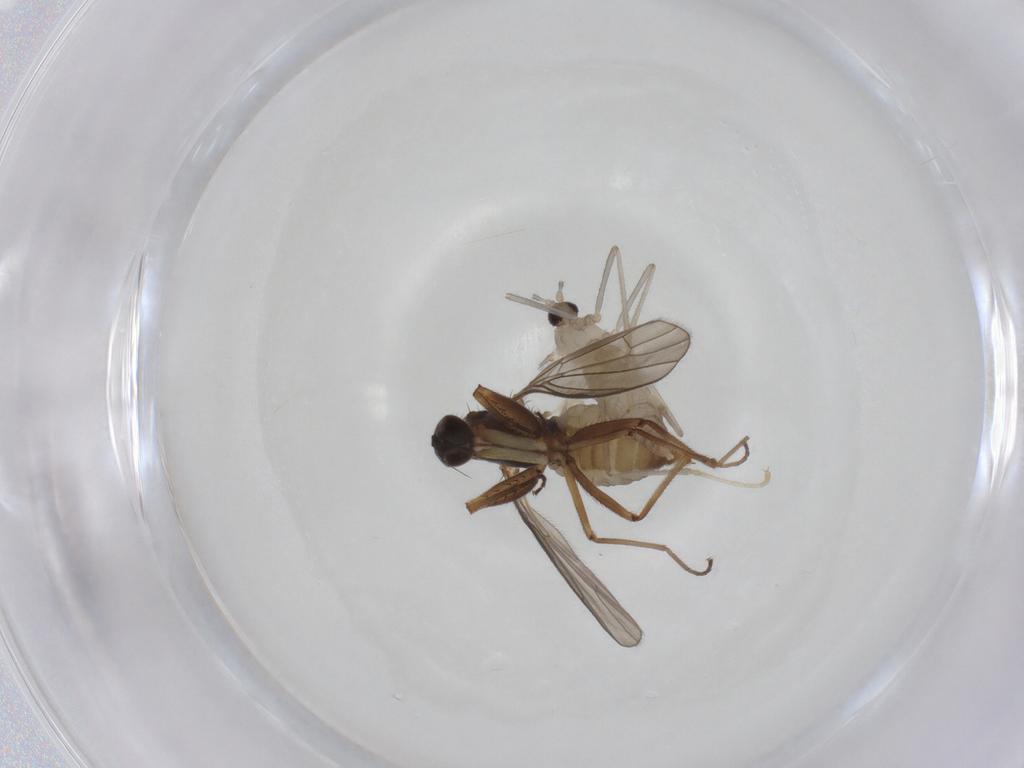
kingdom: Animalia
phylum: Arthropoda
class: Insecta
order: Diptera
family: Empididae
